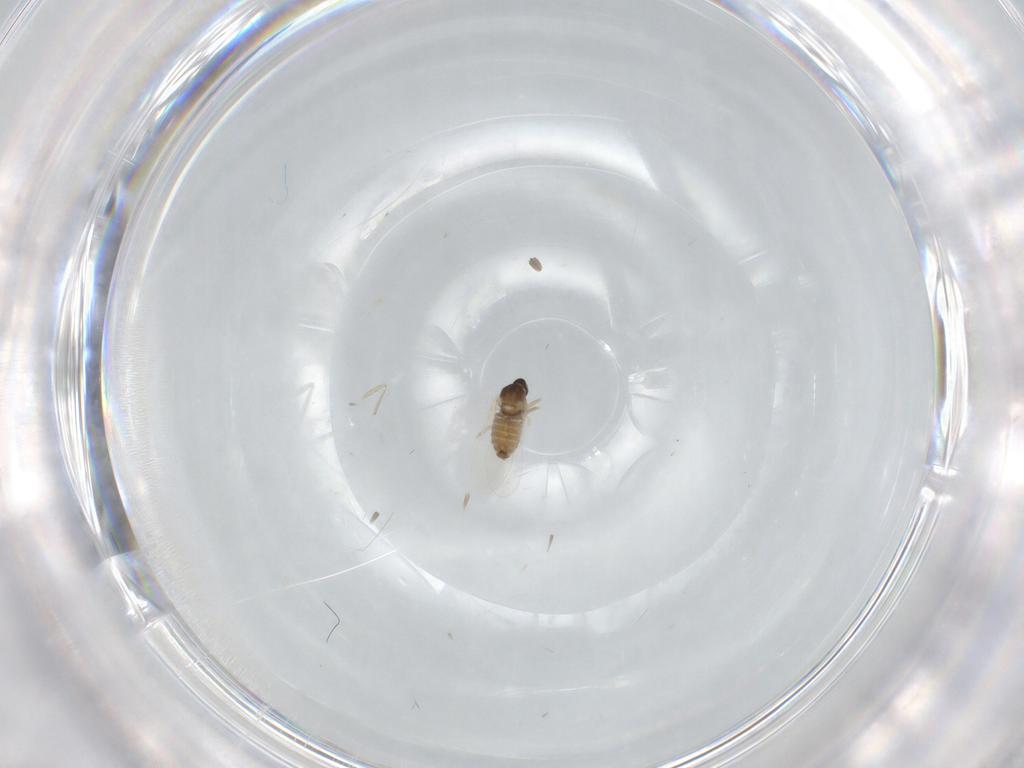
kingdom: Animalia
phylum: Arthropoda
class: Insecta
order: Diptera
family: Cecidomyiidae
